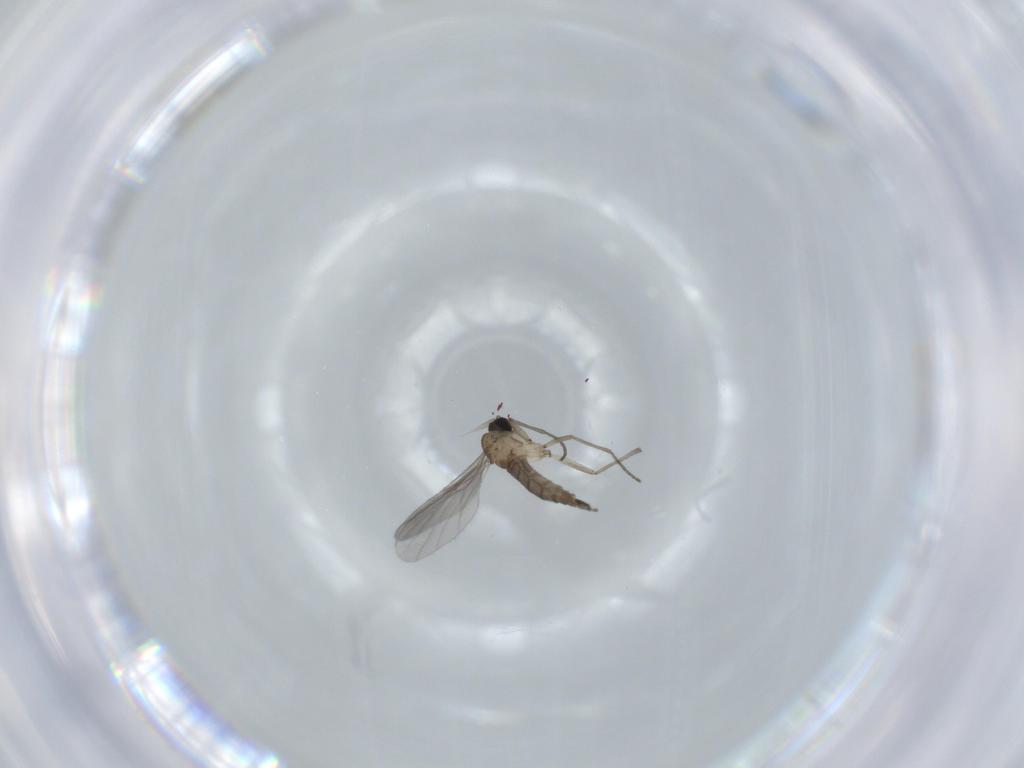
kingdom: Animalia
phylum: Arthropoda
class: Insecta
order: Diptera
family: Sciaridae
